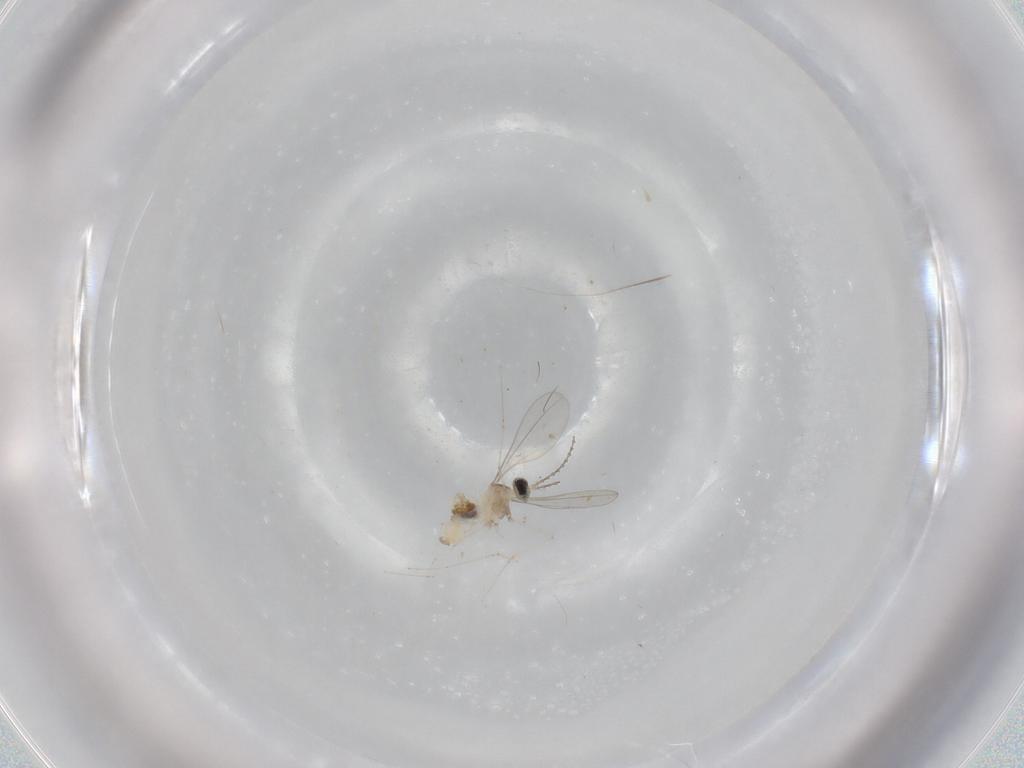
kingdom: Animalia
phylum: Arthropoda
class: Insecta
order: Diptera
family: Cecidomyiidae
